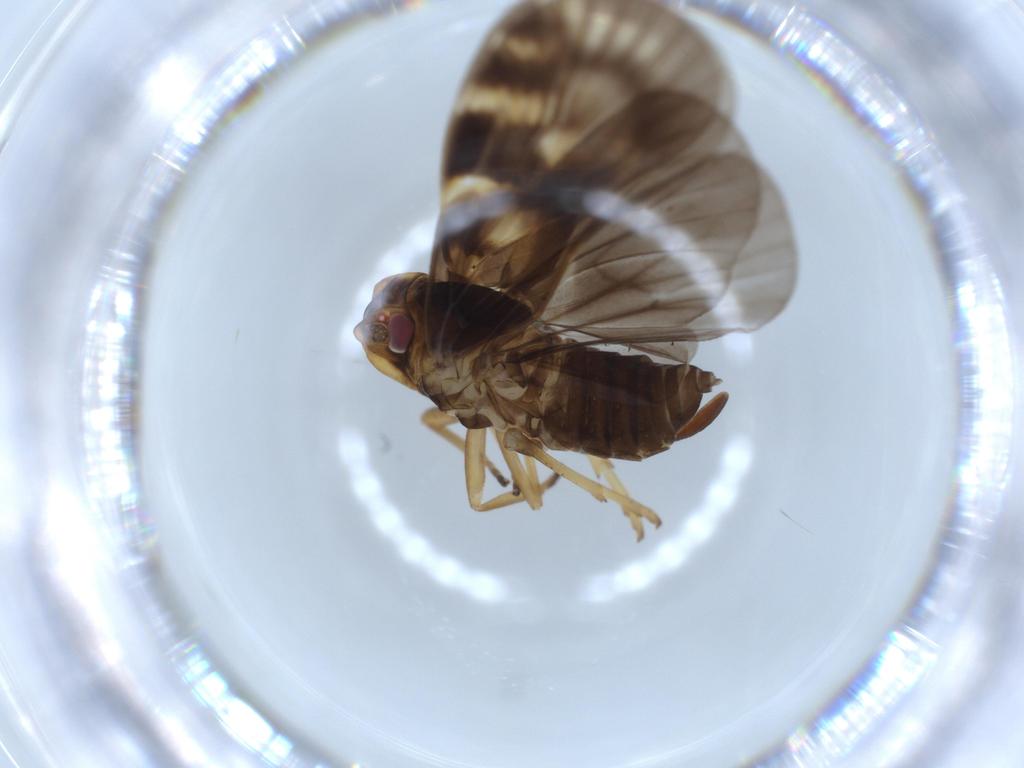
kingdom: Animalia
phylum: Arthropoda
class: Insecta
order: Hemiptera
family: Cixiidae
